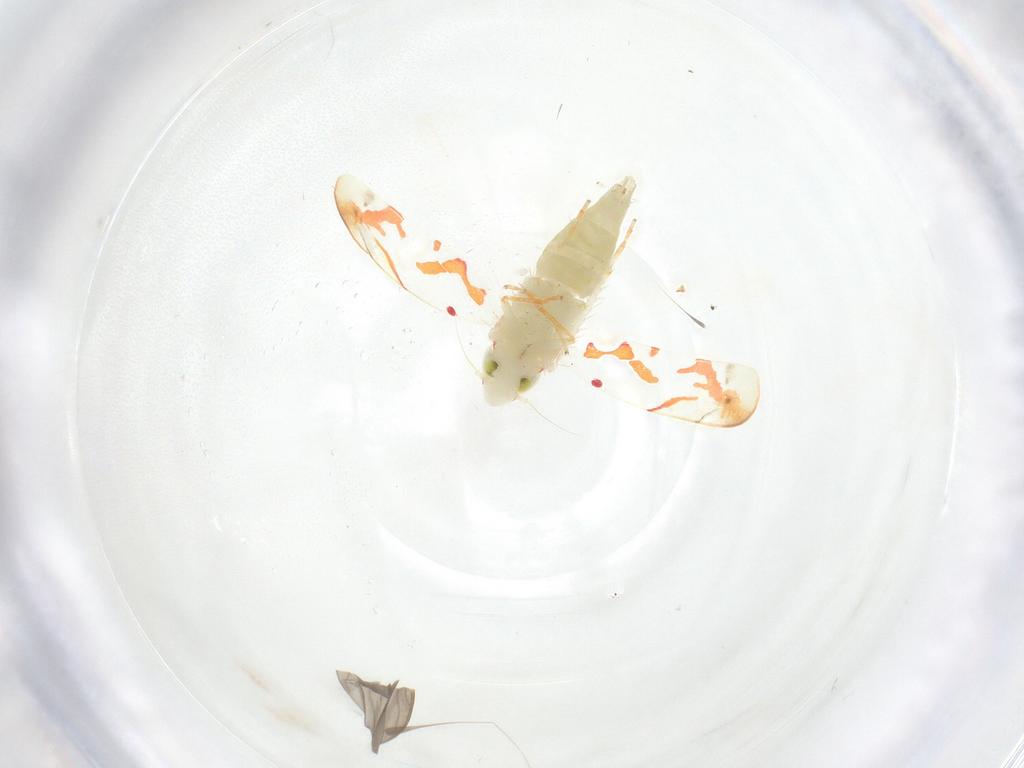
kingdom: Animalia
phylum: Arthropoda
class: Insecta
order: Hemiptera
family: Cicadellidae
